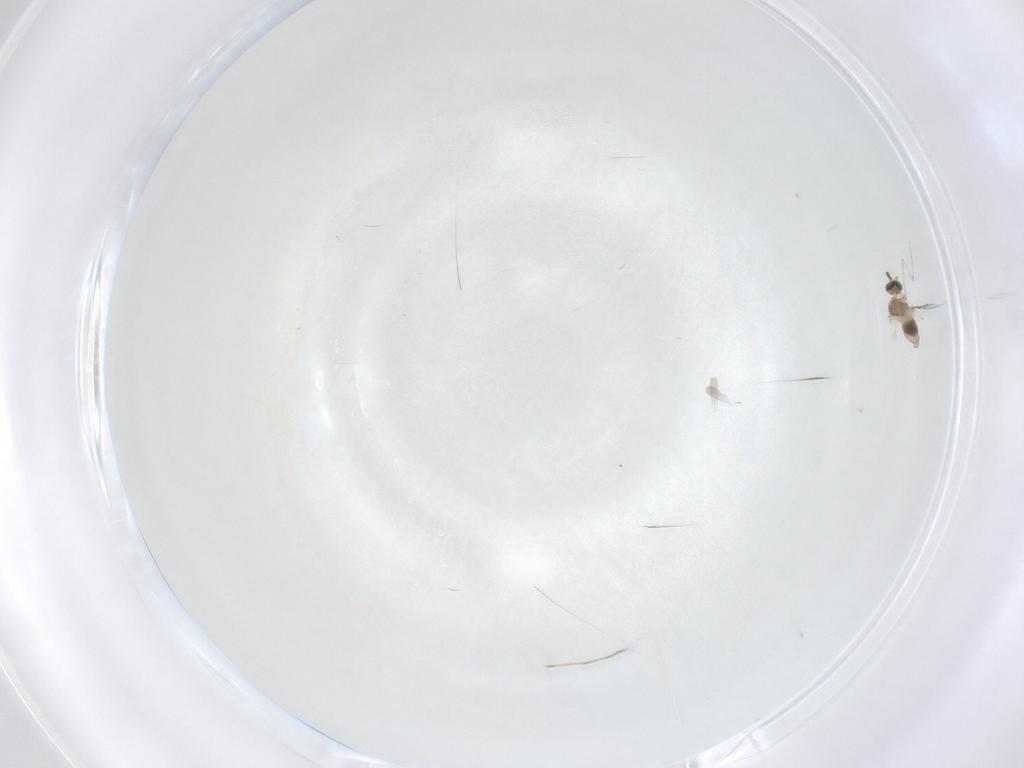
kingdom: Animalia
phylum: Arthropoda
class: Insecta
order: Diptera
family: Cecidomyiidae
